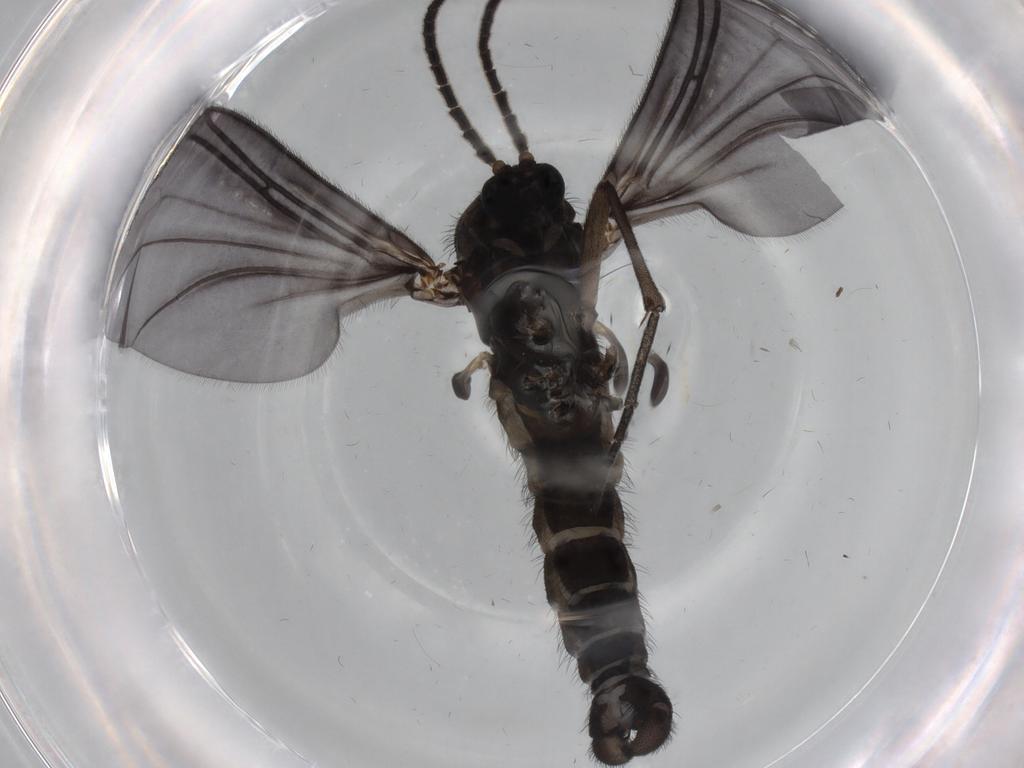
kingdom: Animalia
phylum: Arthropoda
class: Insecta
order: Diptera
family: Sciaridae
